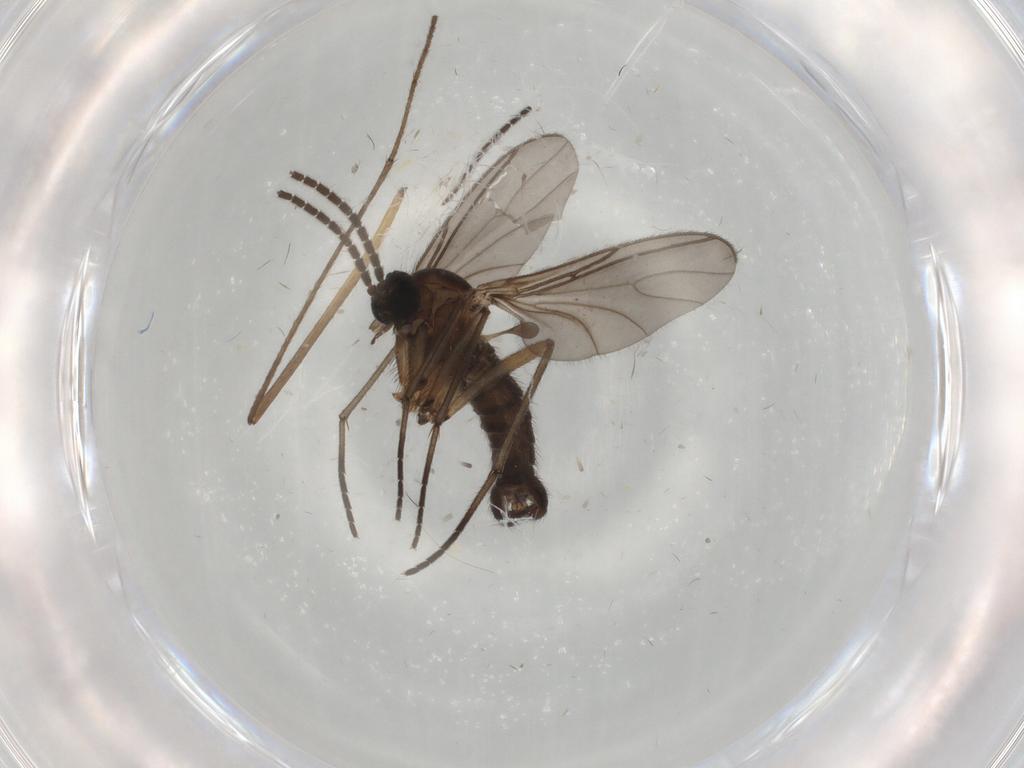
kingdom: Animalia
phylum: Arthropoda
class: Insecta
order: Diptera
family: Sciaridae
